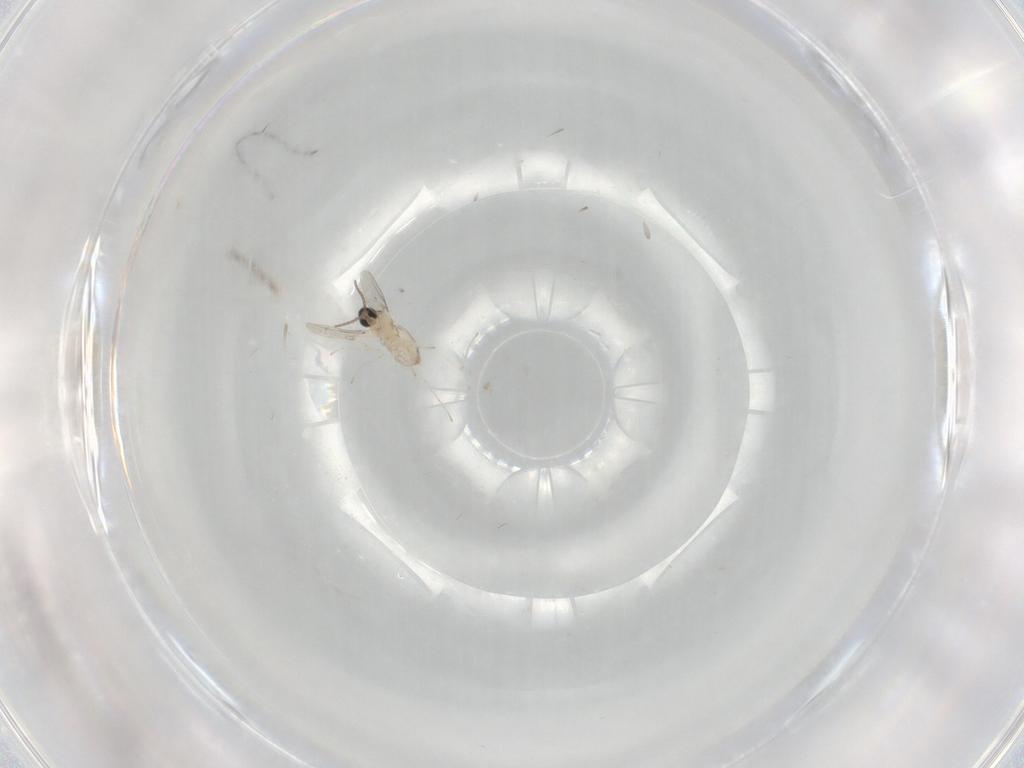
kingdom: Animalia
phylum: Arthropoda
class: Insecta
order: Diptera
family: Cecidomyiidae
